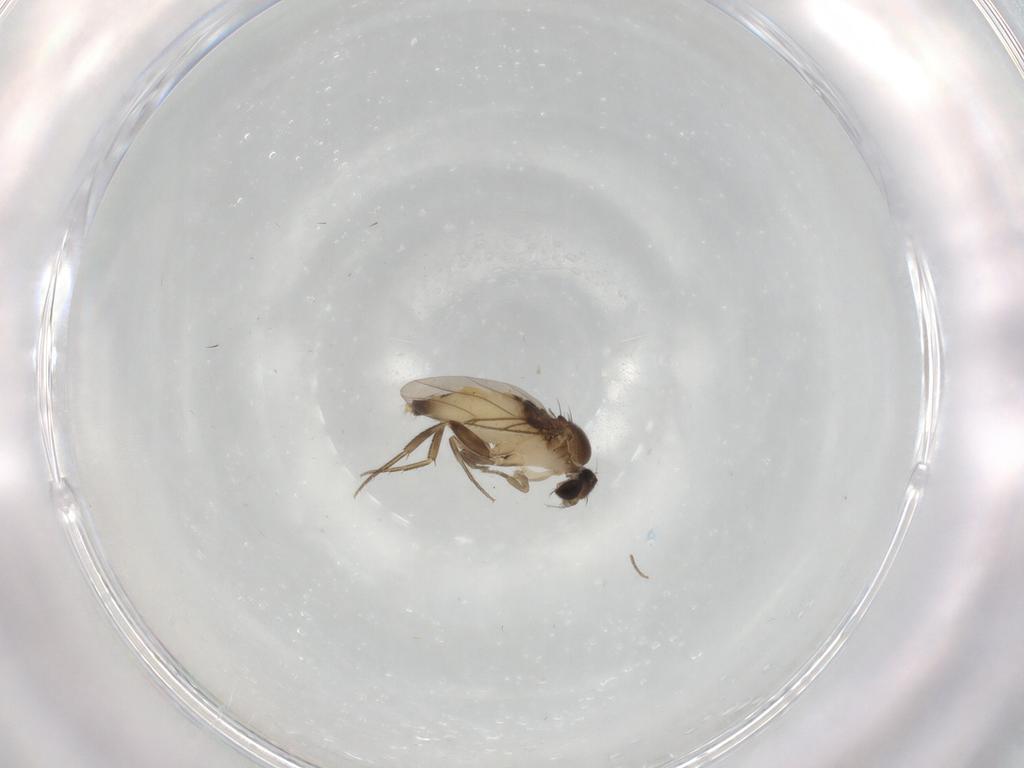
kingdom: Animalia
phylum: Arthropoda
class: Insecta
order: Diptera
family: Phoridae
